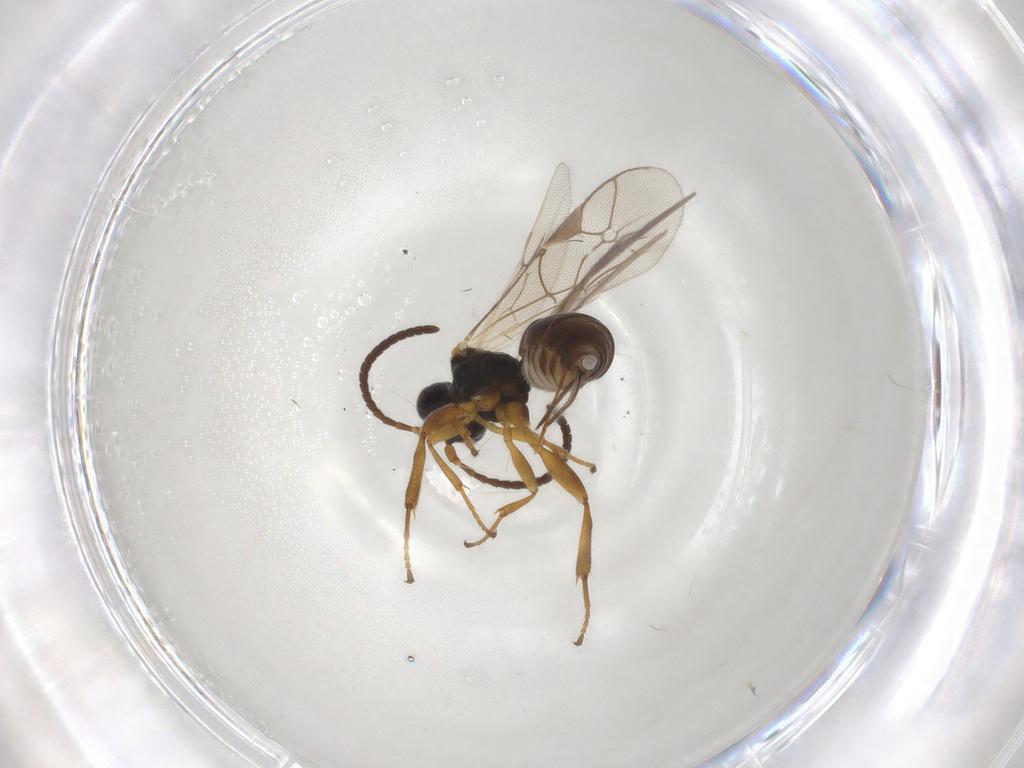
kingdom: Animalia
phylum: Arthropoda
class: Insecta
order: Hymenoptera
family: Ichneumonidae
